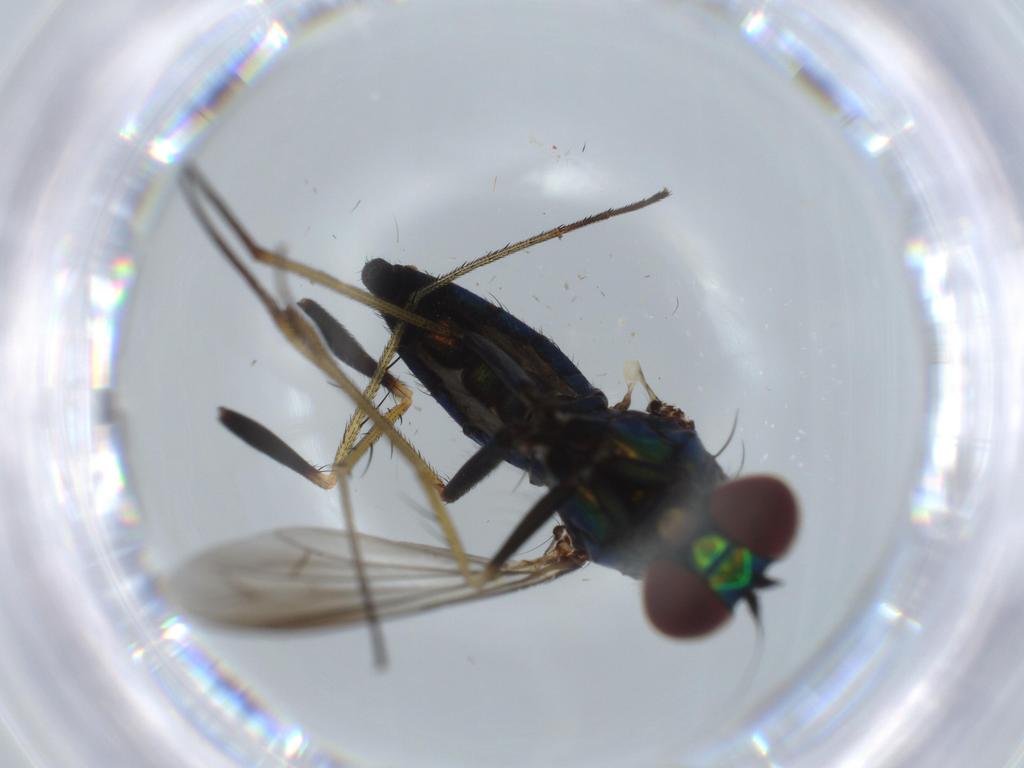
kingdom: Animalia
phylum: Arthropoda
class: Insecta
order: Diptera
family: Dolichopodidae
